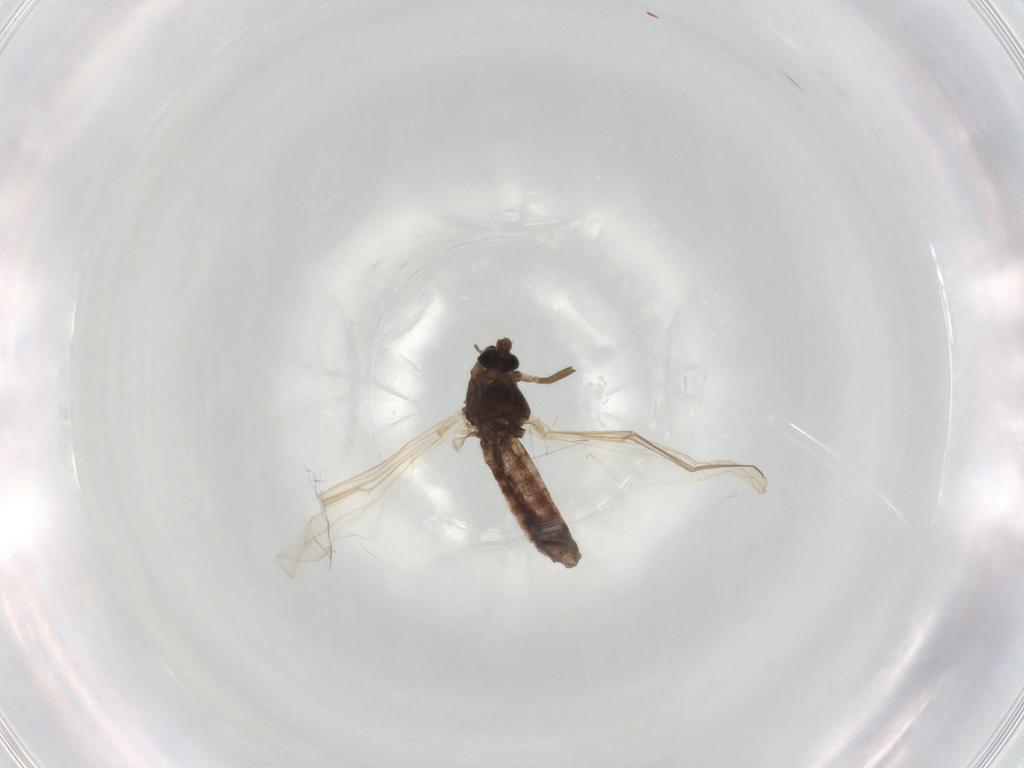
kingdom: Animalia
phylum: Arthropoda
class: Insecta
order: Diptera
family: Chironomidae
